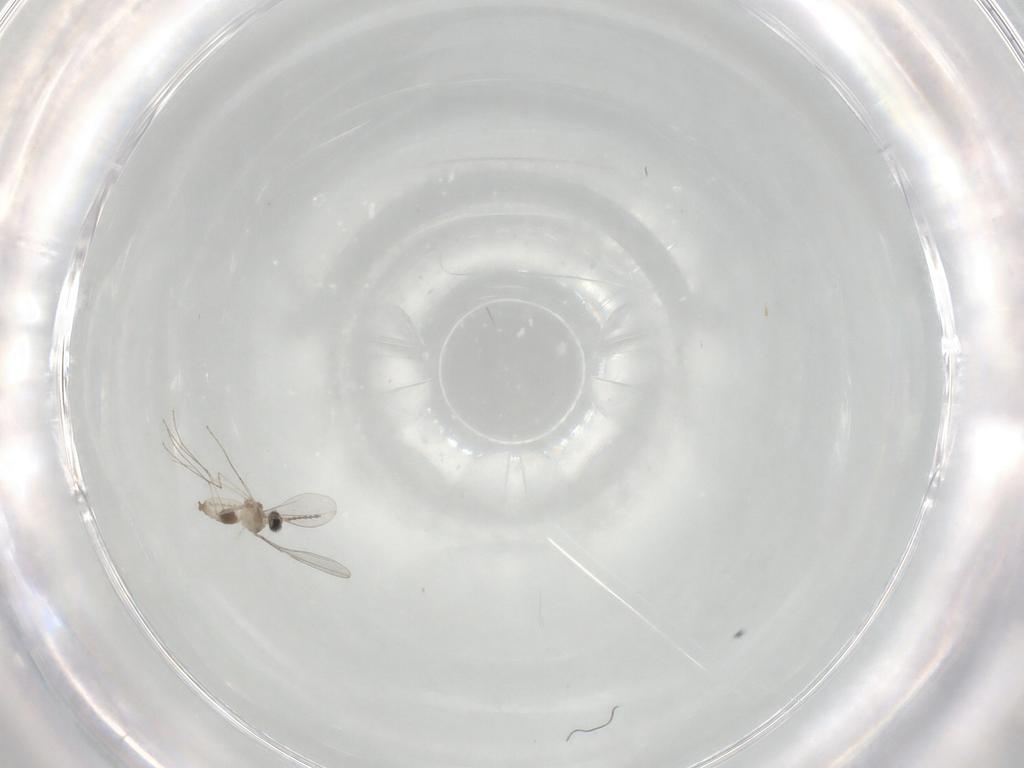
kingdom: Animalia
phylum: Arthropoda
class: Insecta
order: Diptera
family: Cecidomyiidae
